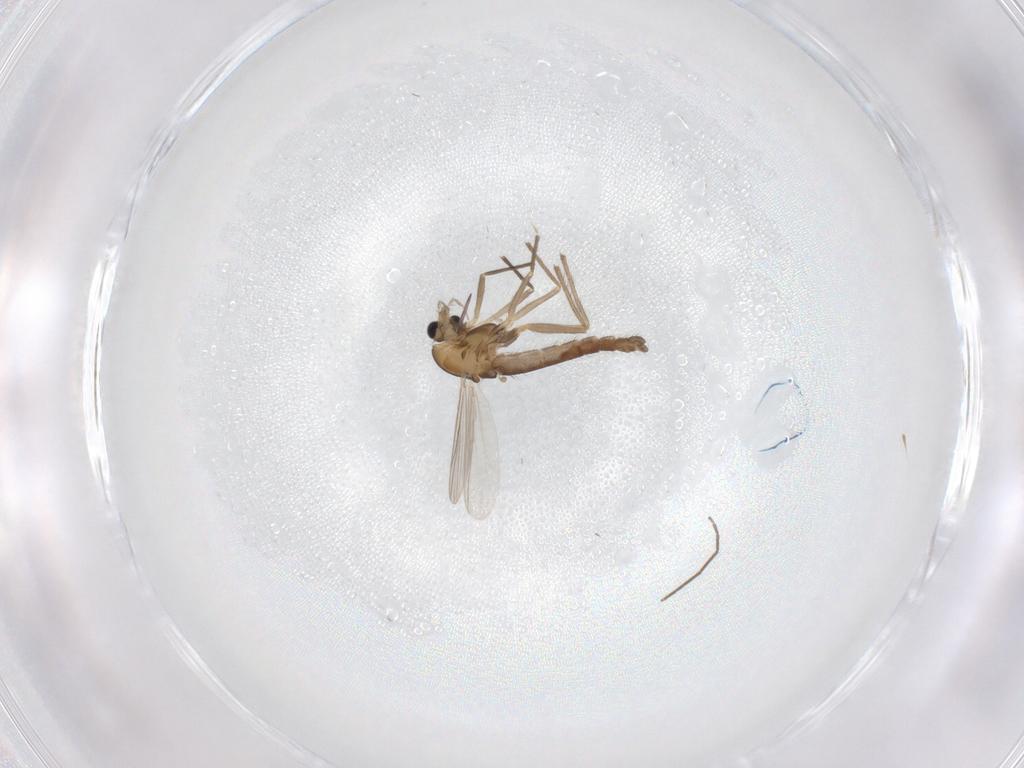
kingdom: Animalia
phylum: Arthropoda
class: Insecta
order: Diptera
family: Chironomidae
